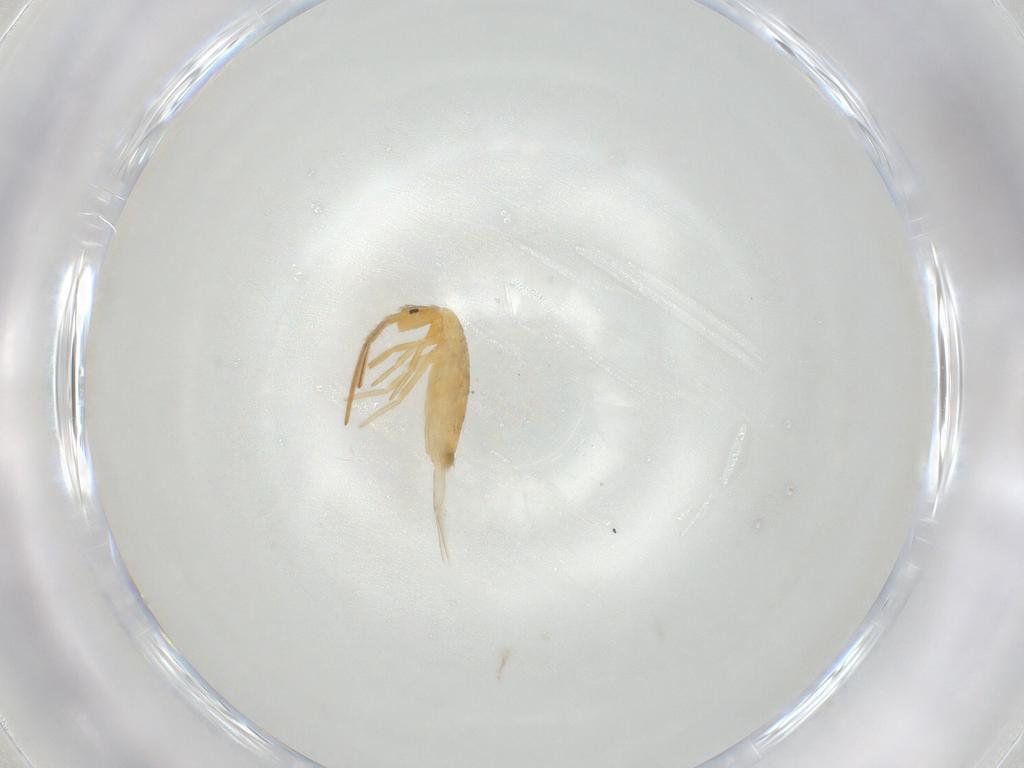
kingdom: Animalia
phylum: Arthropoda
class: Collembola
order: Entomobryomorpha
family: Entomobryidae
